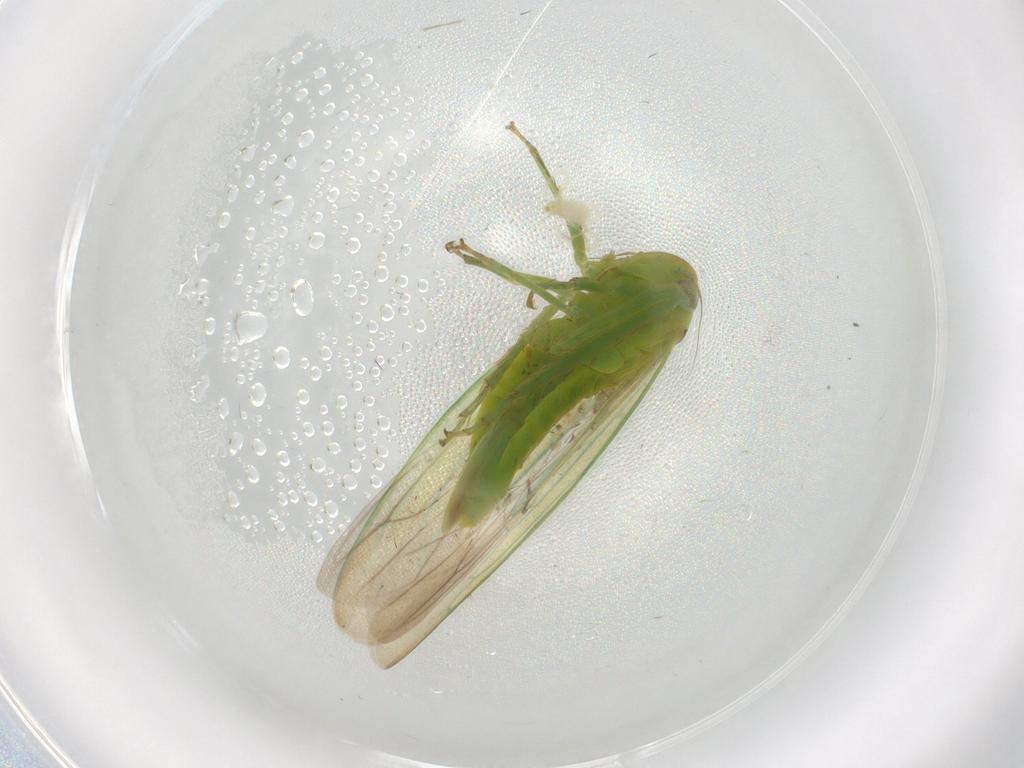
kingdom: Animalia
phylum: Arthropoda
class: Insecta
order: Hemiptera
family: Cicadellidae
